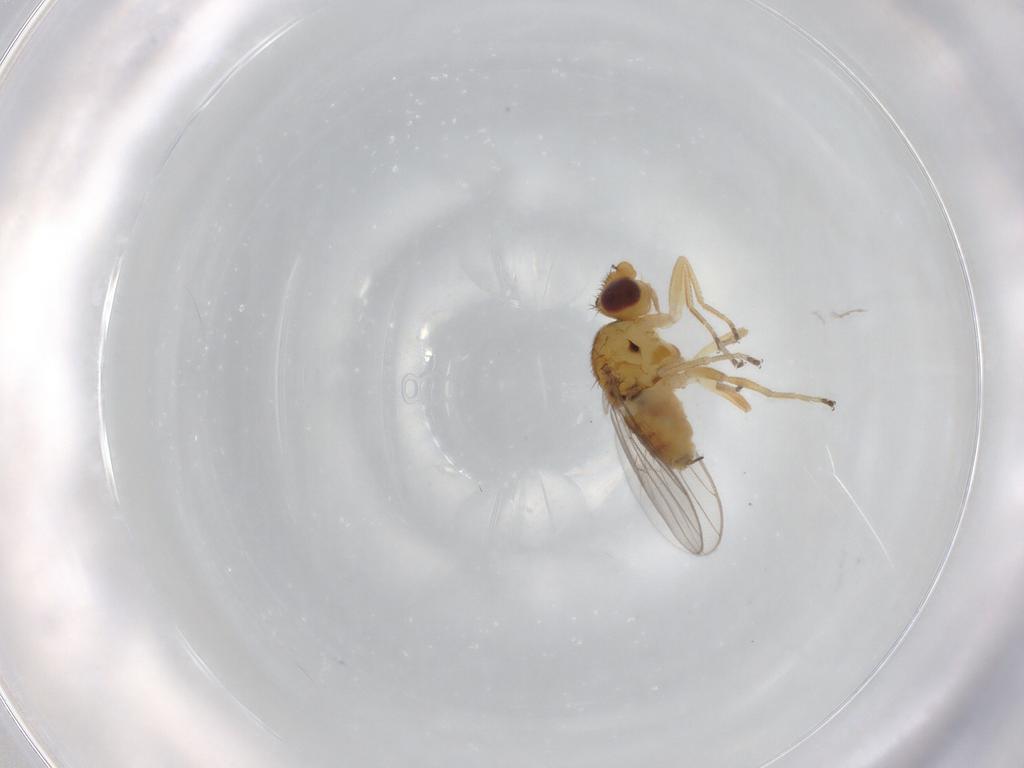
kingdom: Animalia
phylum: Arthropoda
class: Insecta
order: Diptera
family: Chloropidae
